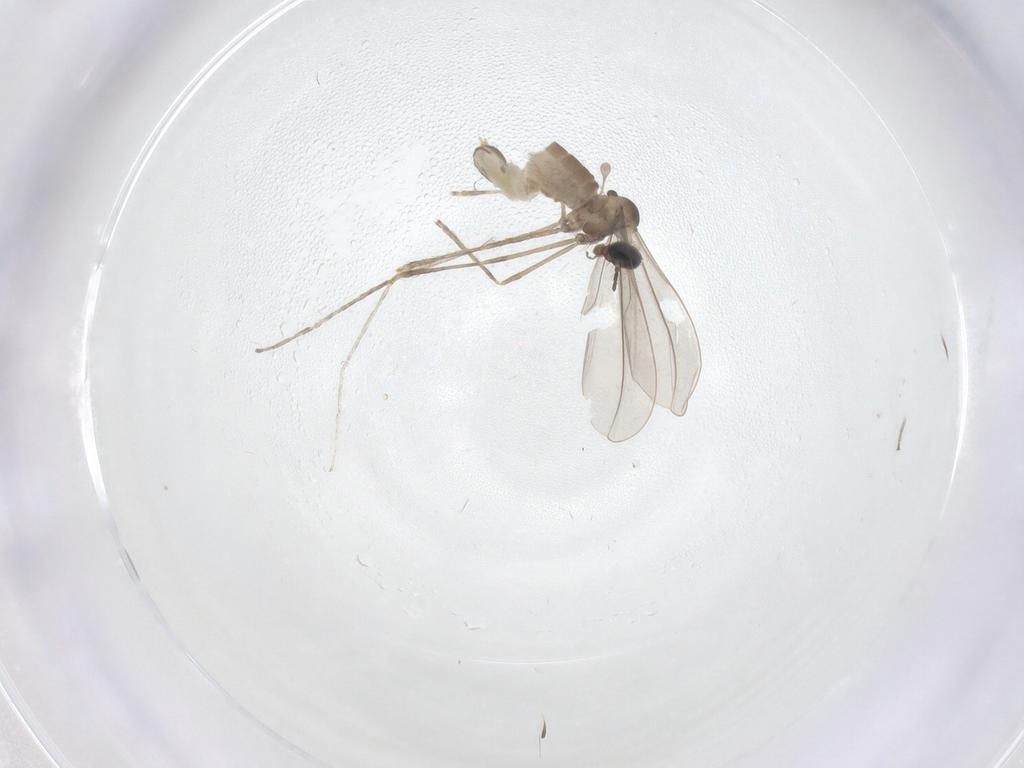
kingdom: Animalia
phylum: Arthropoda
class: Insecta
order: Diptera
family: Cecidomyiidae
